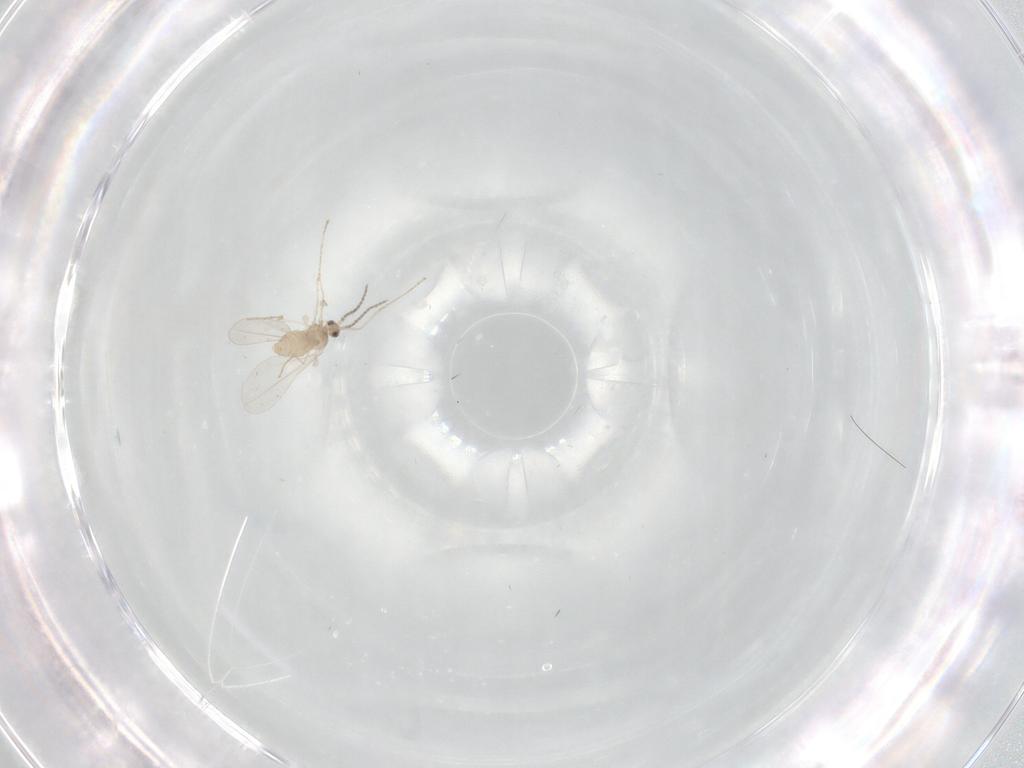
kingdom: Animalia
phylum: Arthropoda
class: Insecta
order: Diptera
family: Cecidomyiidae
